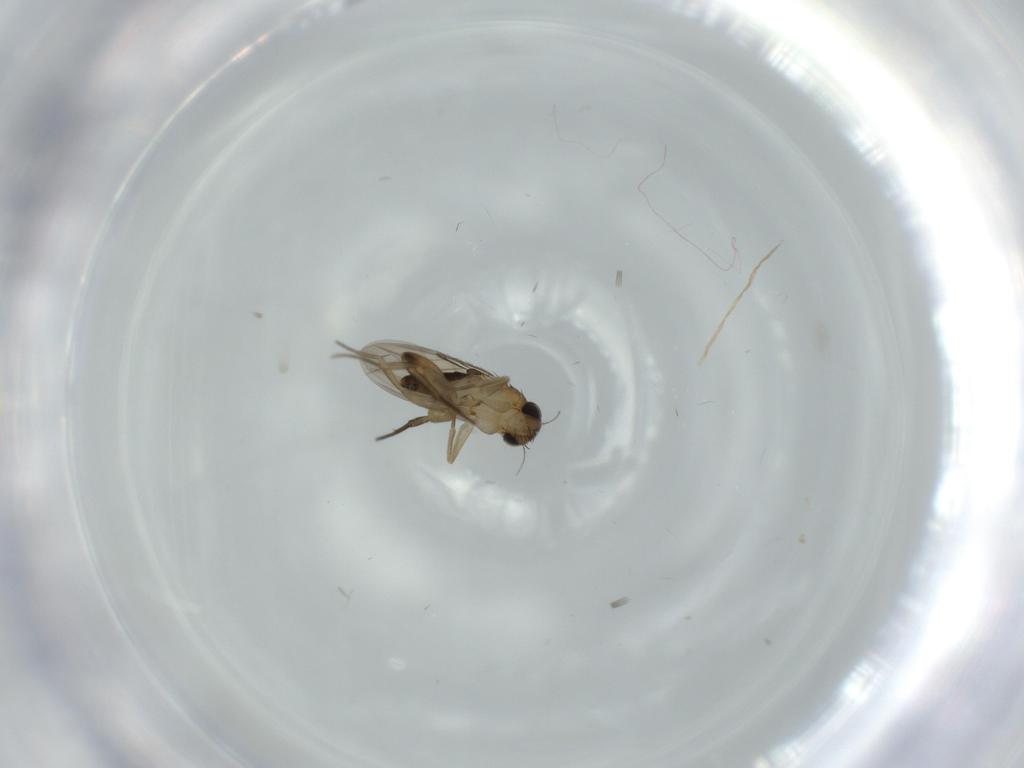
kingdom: Animalia
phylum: Arthropoda
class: Insecta
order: Diptera
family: Phoridae
